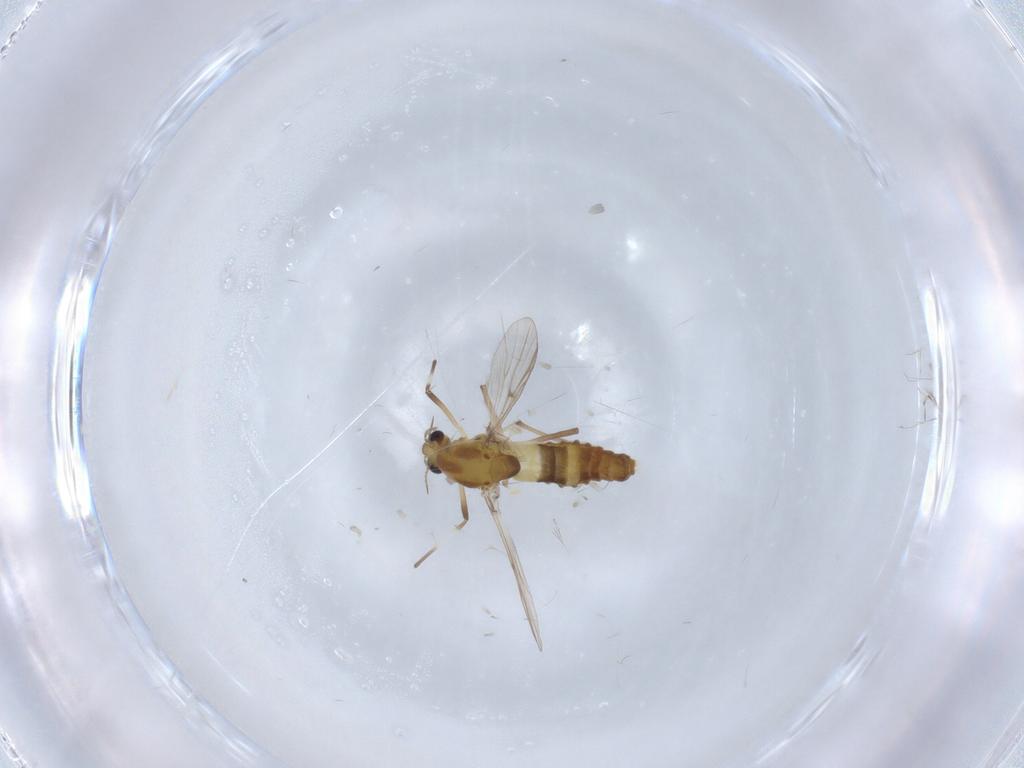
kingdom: Animalia
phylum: Arthropoda
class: Insecta
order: Diptera
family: Chironomidae
